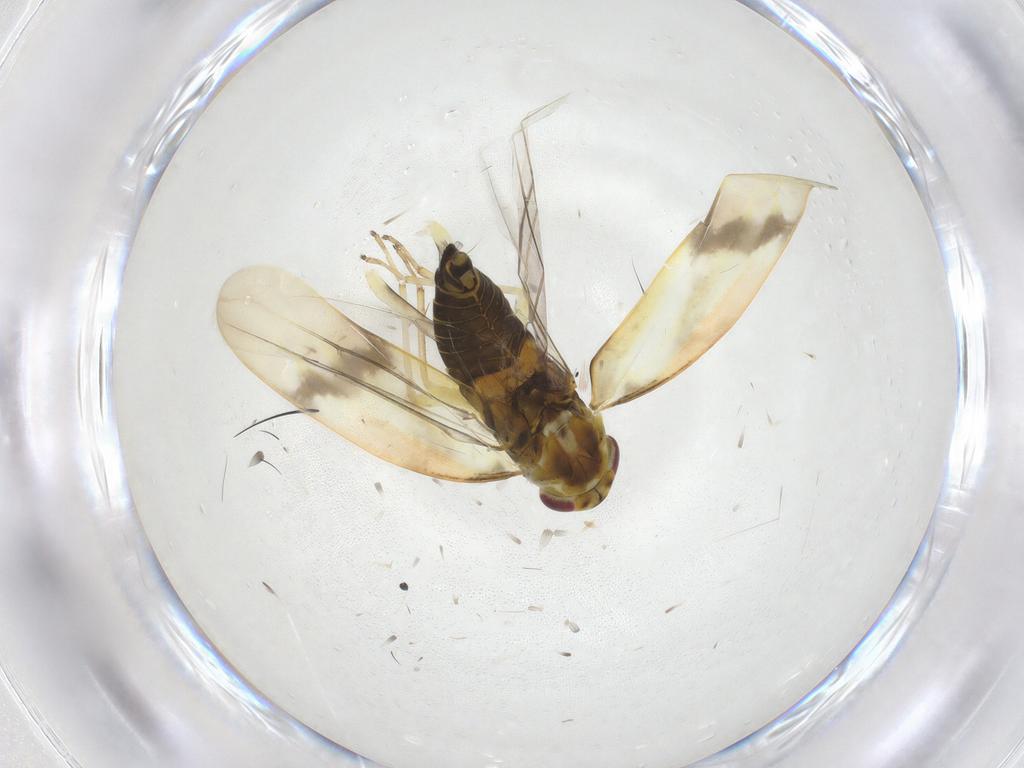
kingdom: Animalia
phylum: Arthropoda
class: Insecta
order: Hemiptera
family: Cicadellidae
